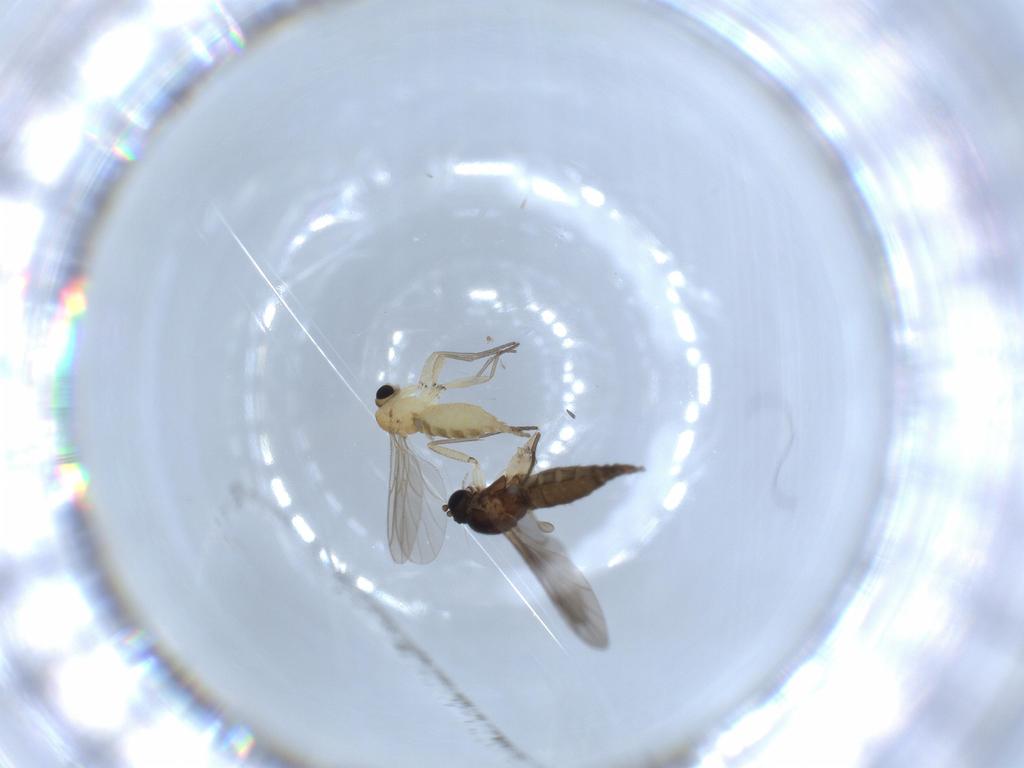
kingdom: Animalia
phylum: Arthropoda
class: Insecta
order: Diptera
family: Sciaridae
